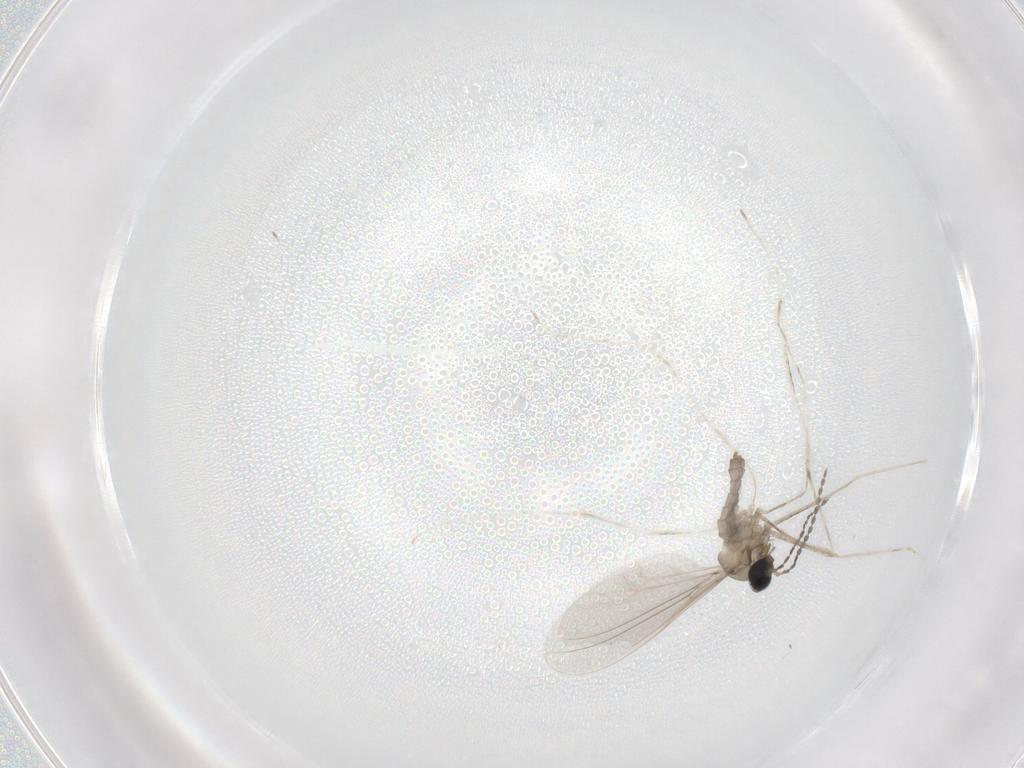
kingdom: Animalia
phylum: Arthropoda
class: Insecta
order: Diptera
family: Cecidomyiidae
